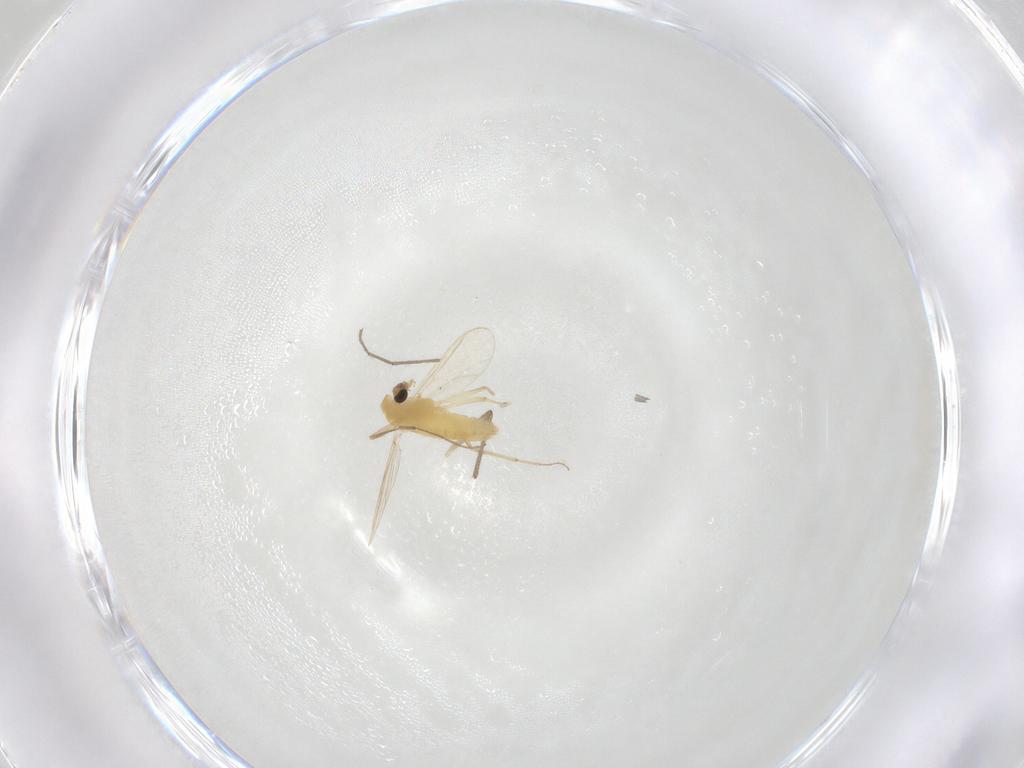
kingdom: Animalia
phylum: Arthropoda
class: Insecta
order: Diptera
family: Chironomidae
